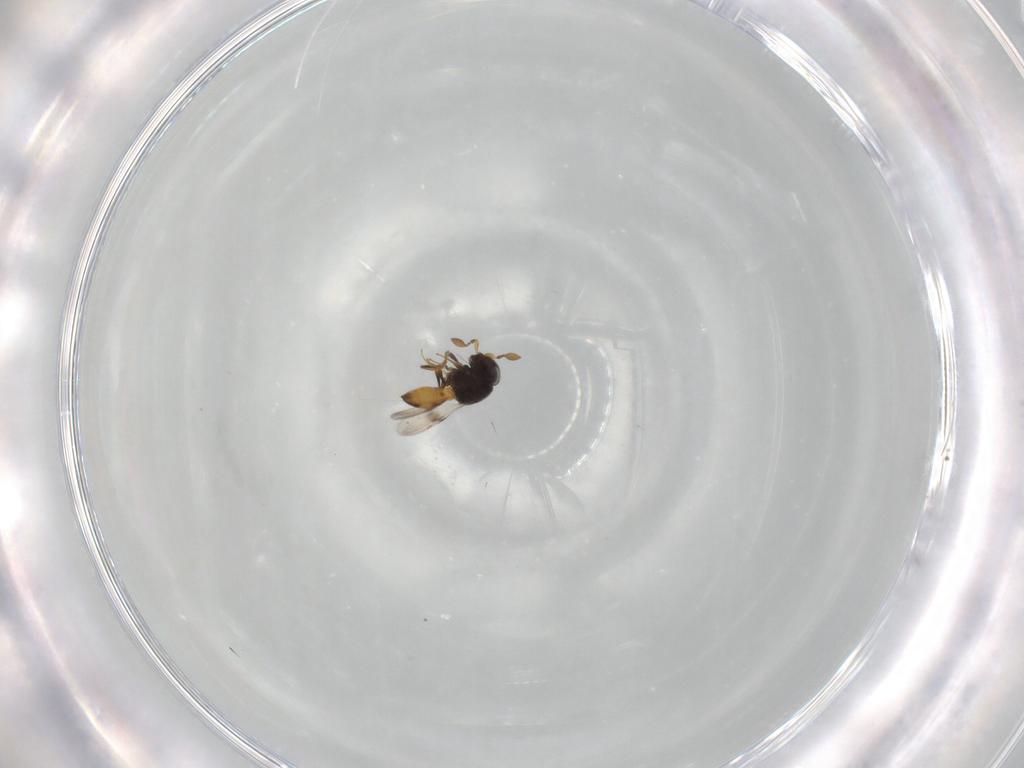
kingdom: Animalia
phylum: Arthropoda
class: Insecta
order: Hymenoptera
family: Scelionidae
